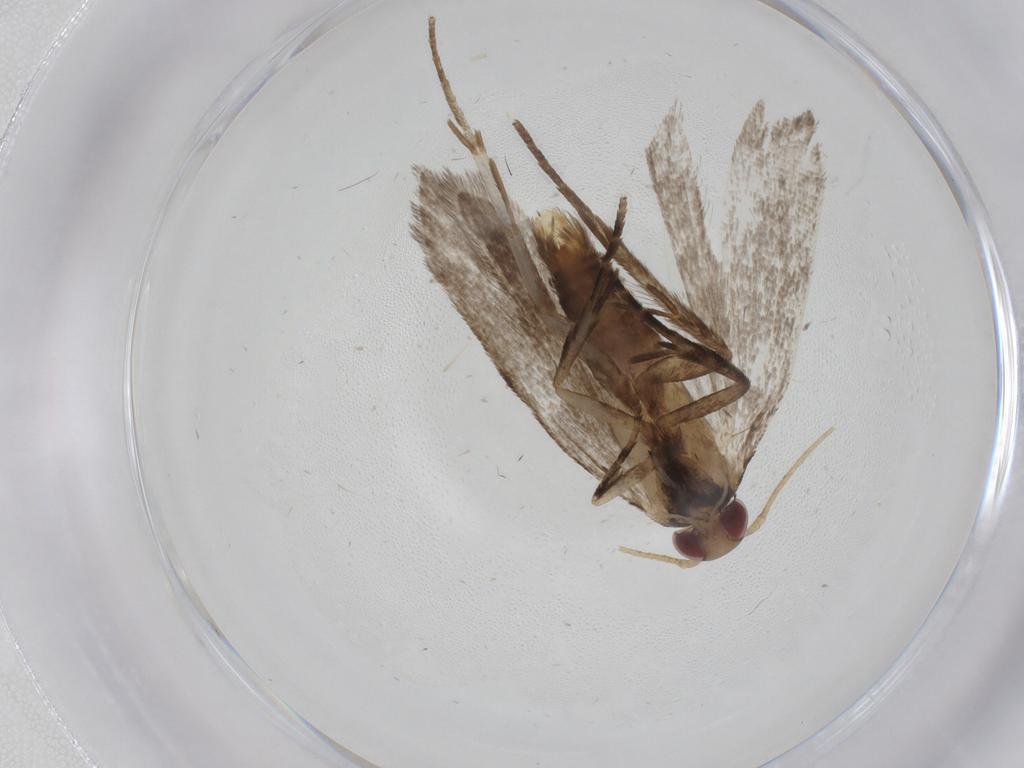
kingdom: Animalia
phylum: Arthropoda
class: Insecta
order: Lepidoptera
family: Gelechiidae
